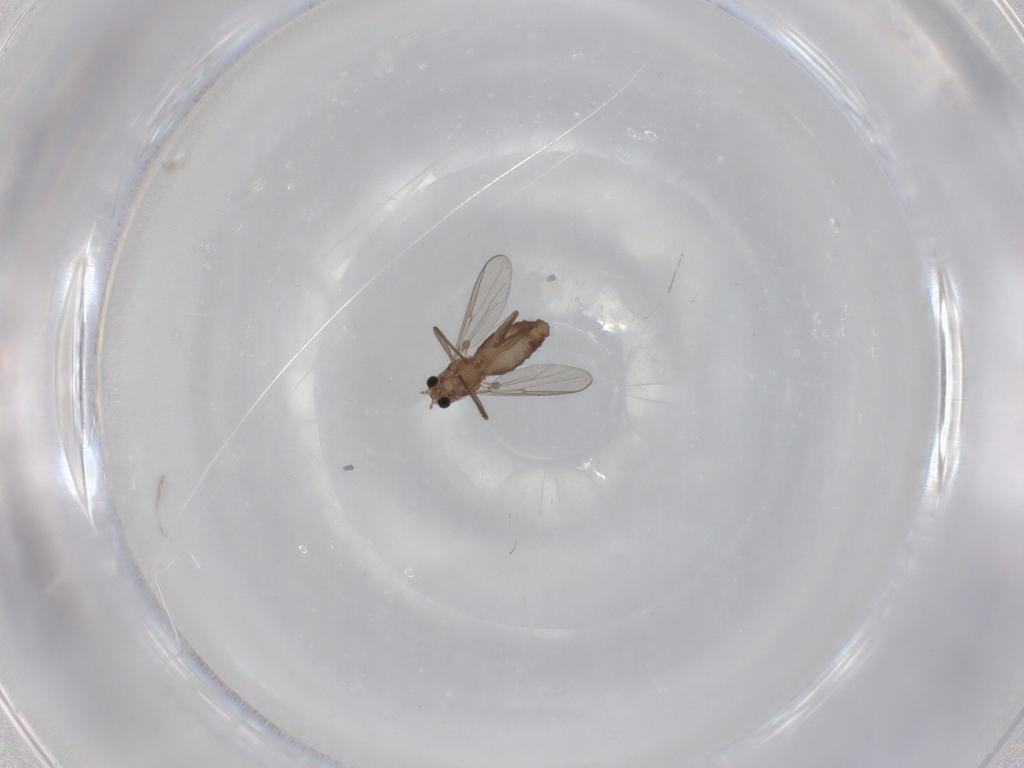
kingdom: Animalia
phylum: Arthropoda
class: Insecta
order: Diptera
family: Chironomidae
